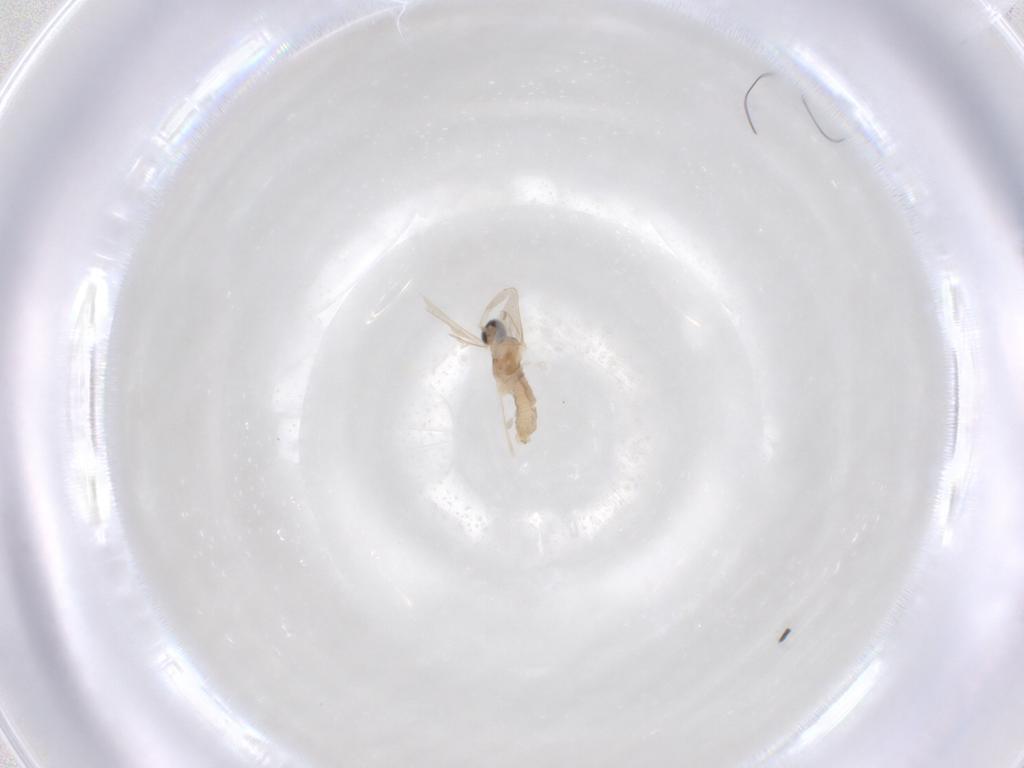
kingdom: Animalia
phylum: Arthropoda
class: Insecta
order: Diptera
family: Cecidomyiidae
